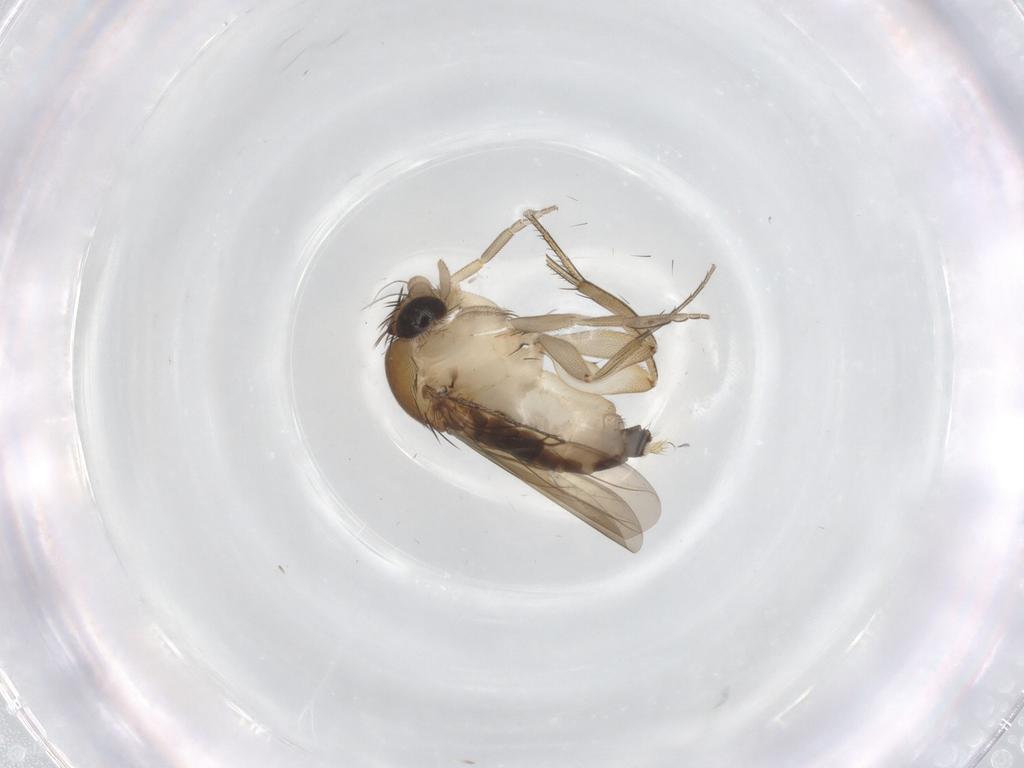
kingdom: Animalia
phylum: Arthropoda
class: Insecta
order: Diptera
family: Phoridae
